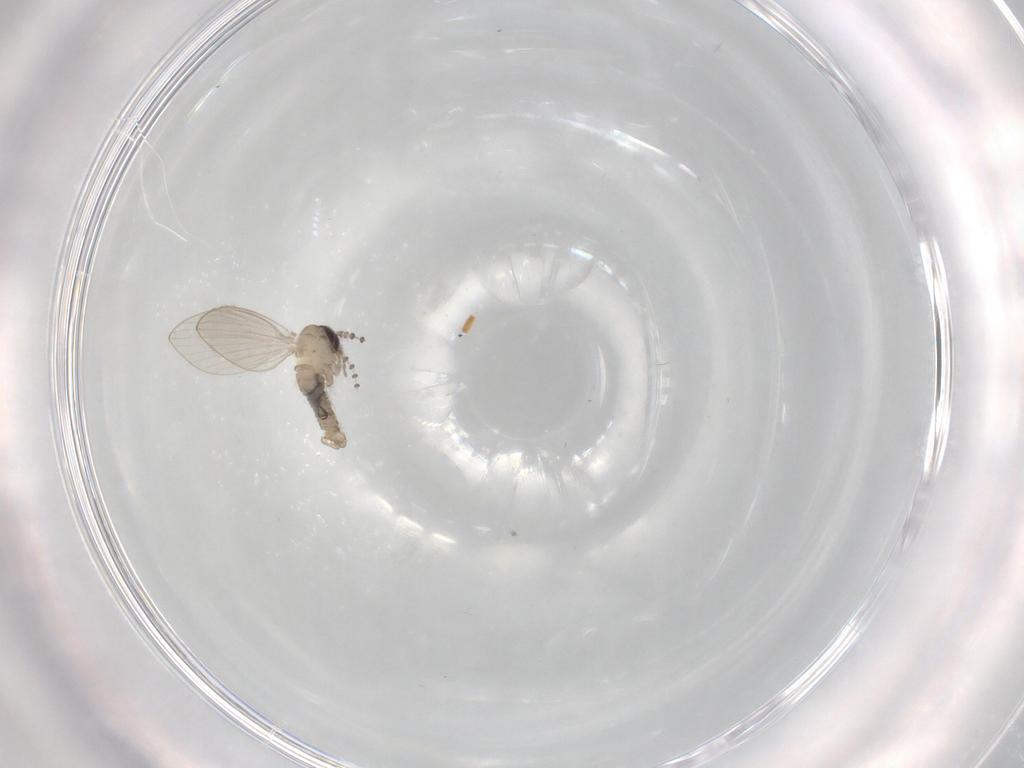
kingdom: Animalia
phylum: Arthropoda
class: Insecta
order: Diptera
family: Psychodidae
